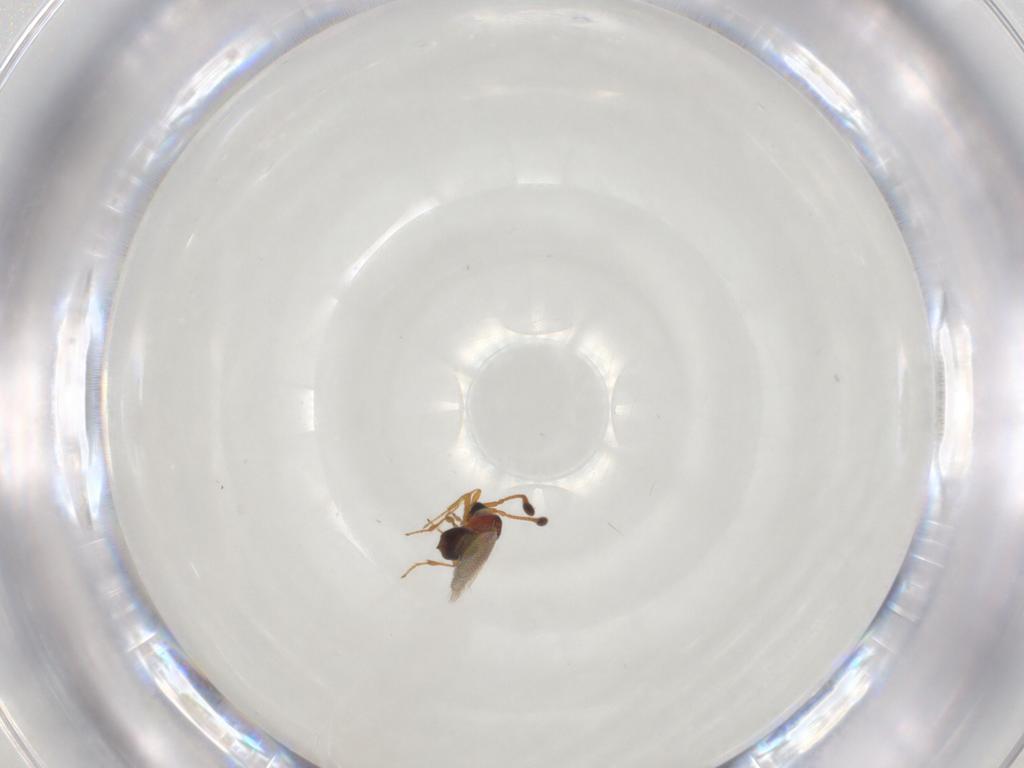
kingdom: Animalia
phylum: Arthropoda
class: Insecta
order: Hymenoptera
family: Diapriidae
